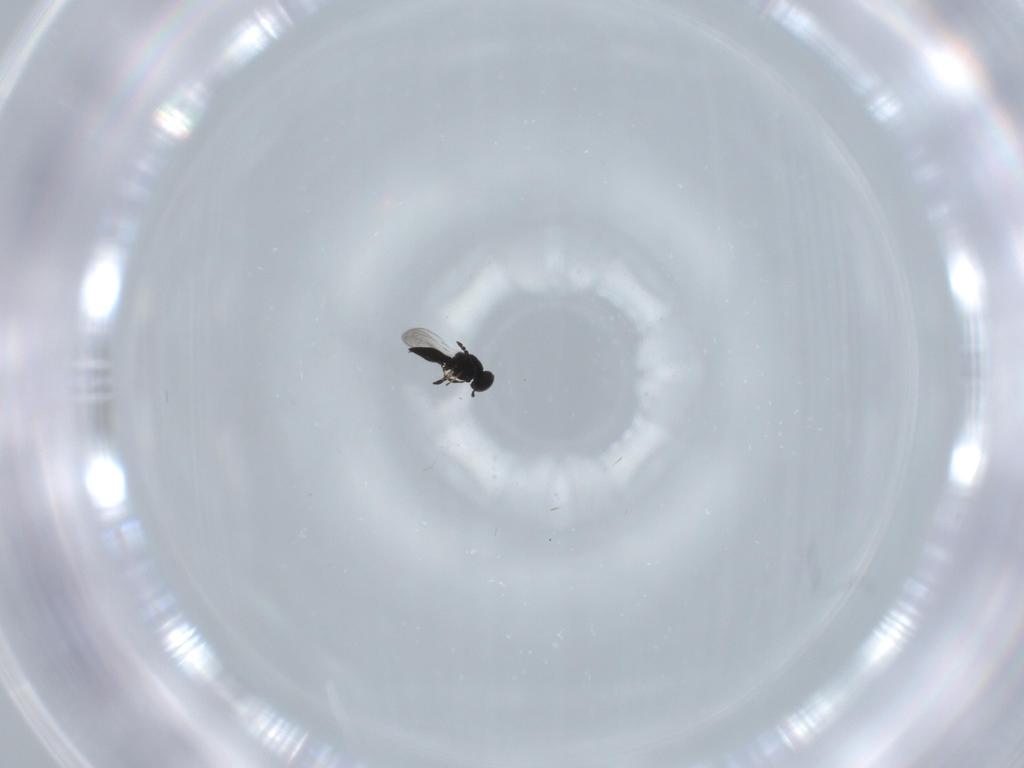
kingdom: Animalia
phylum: Arthropoda
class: Insecta
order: Hymenoptera
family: Platygastridae
